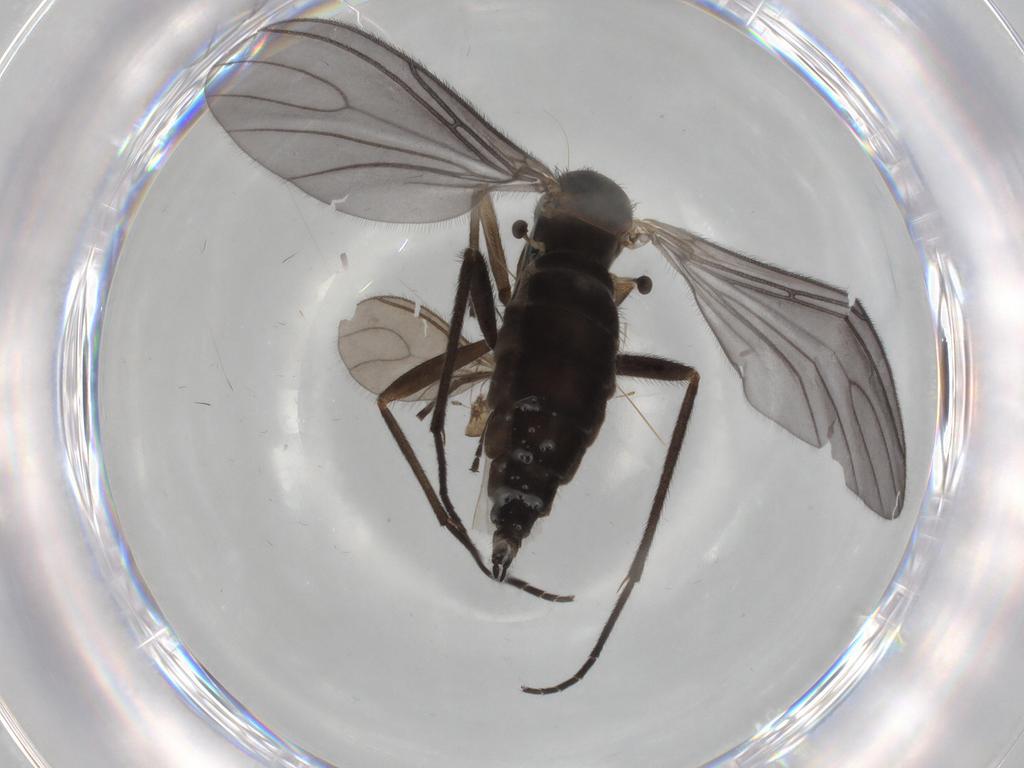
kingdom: Animalia
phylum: Arthropoda
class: Insecta
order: Diptera
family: Sciaridae
